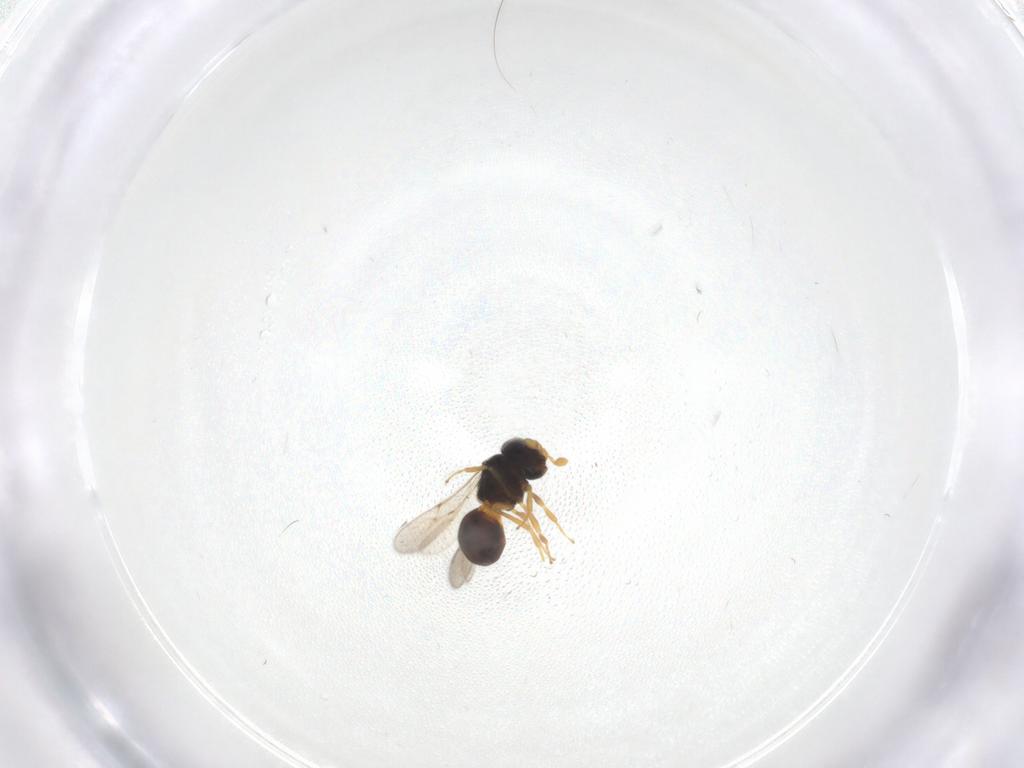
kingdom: Animalia
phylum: Arthropoda
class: Insecta
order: Hymenoptera
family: Scelionidae
